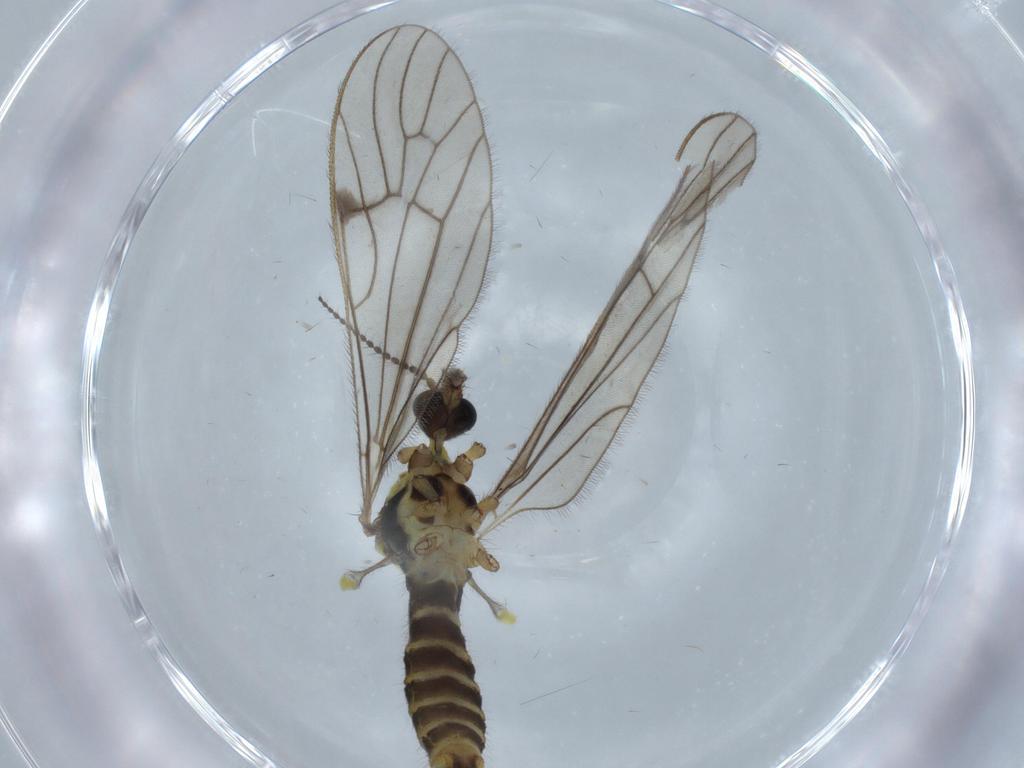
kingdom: Animalia
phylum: Arthropoda
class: Insecta
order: Diptera
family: Limoniidae
